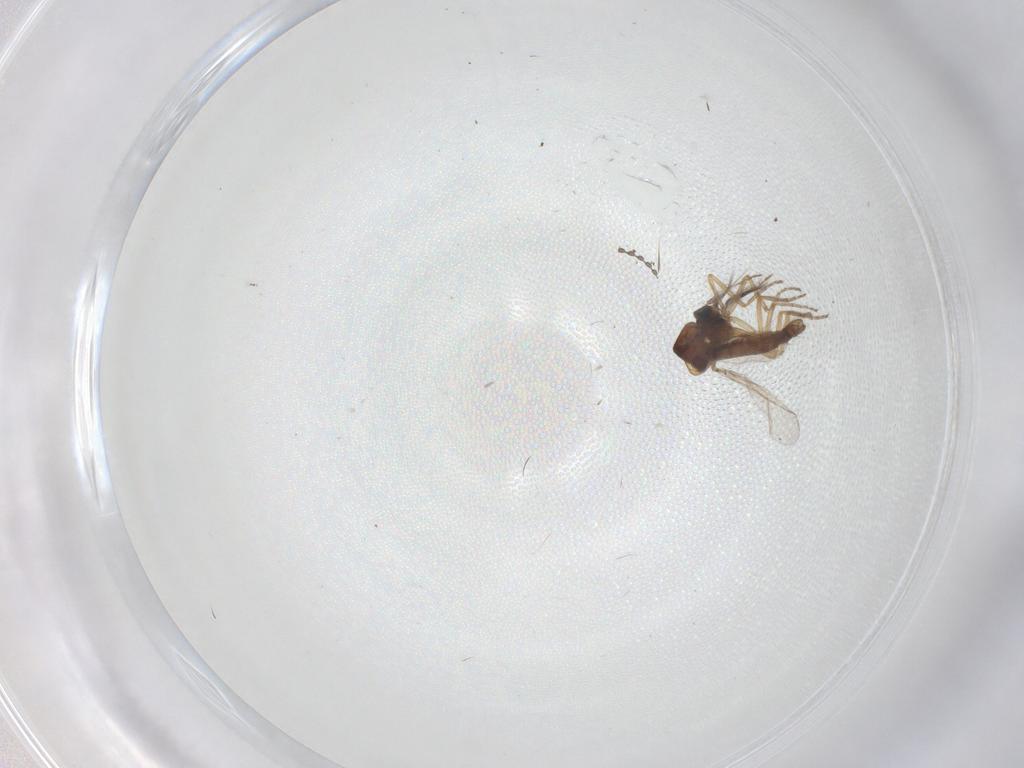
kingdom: Animalia
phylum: Arthropoda
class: Insecta
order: Diptera
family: Ceratopogonidae
